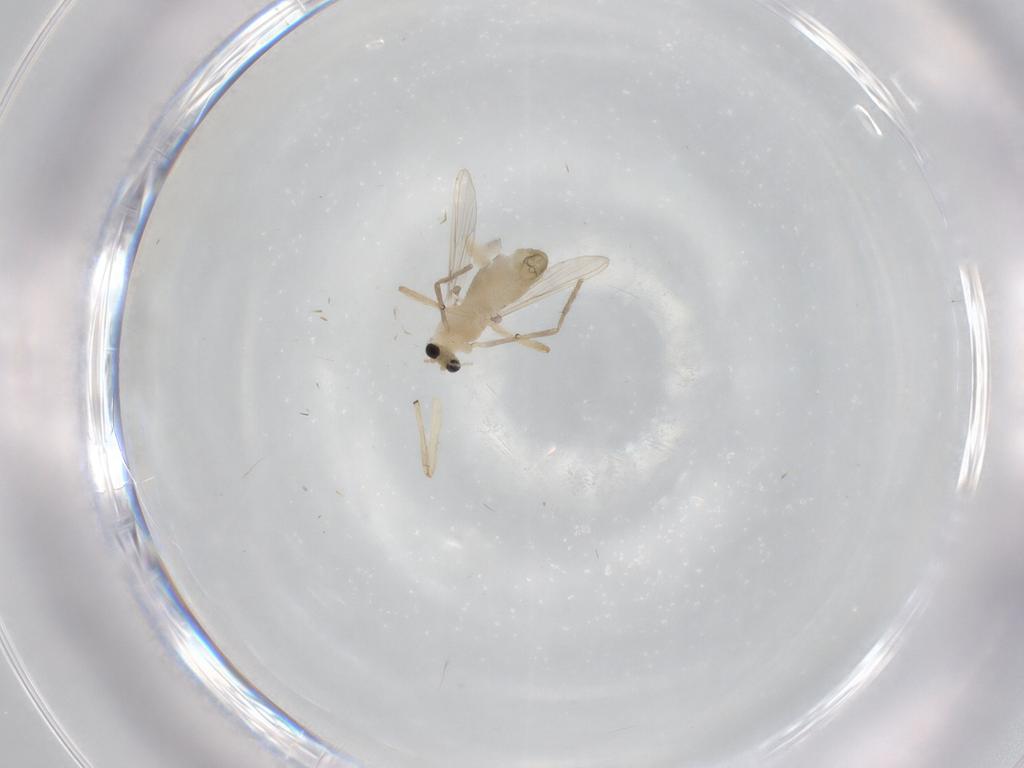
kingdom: Animalia
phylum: Arthropoda
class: Insecta
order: Diptera
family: Chironomidae
